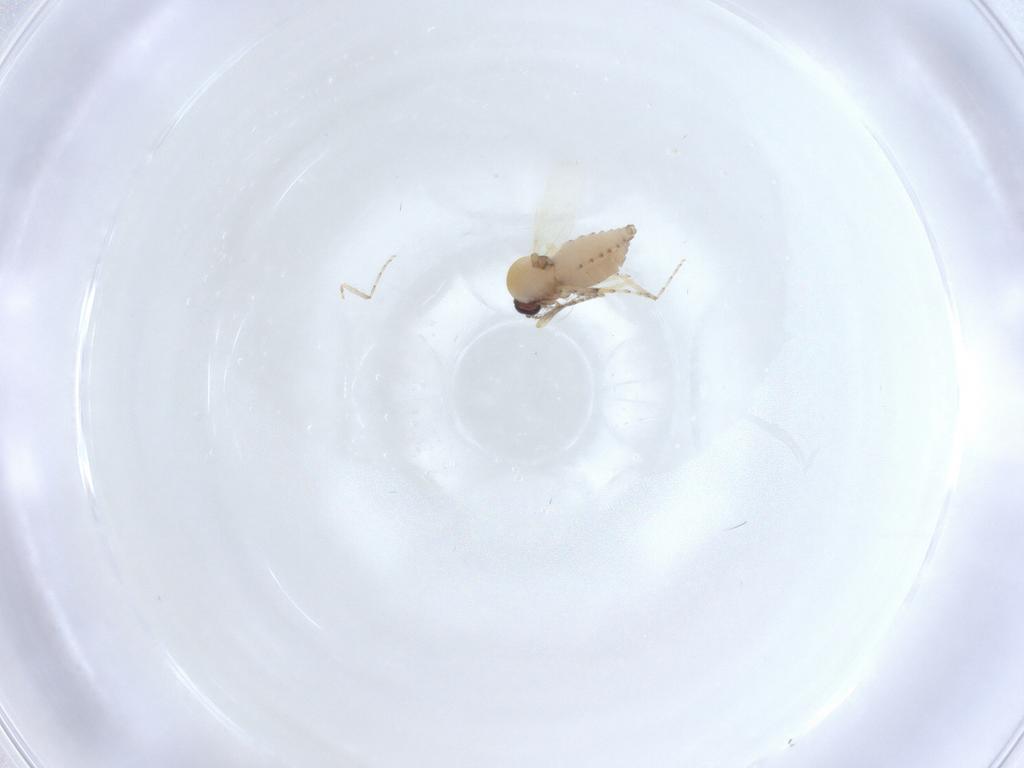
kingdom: Animalia
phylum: Arthropoda
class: Insecta
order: Diptera
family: Ceratopogonidae
